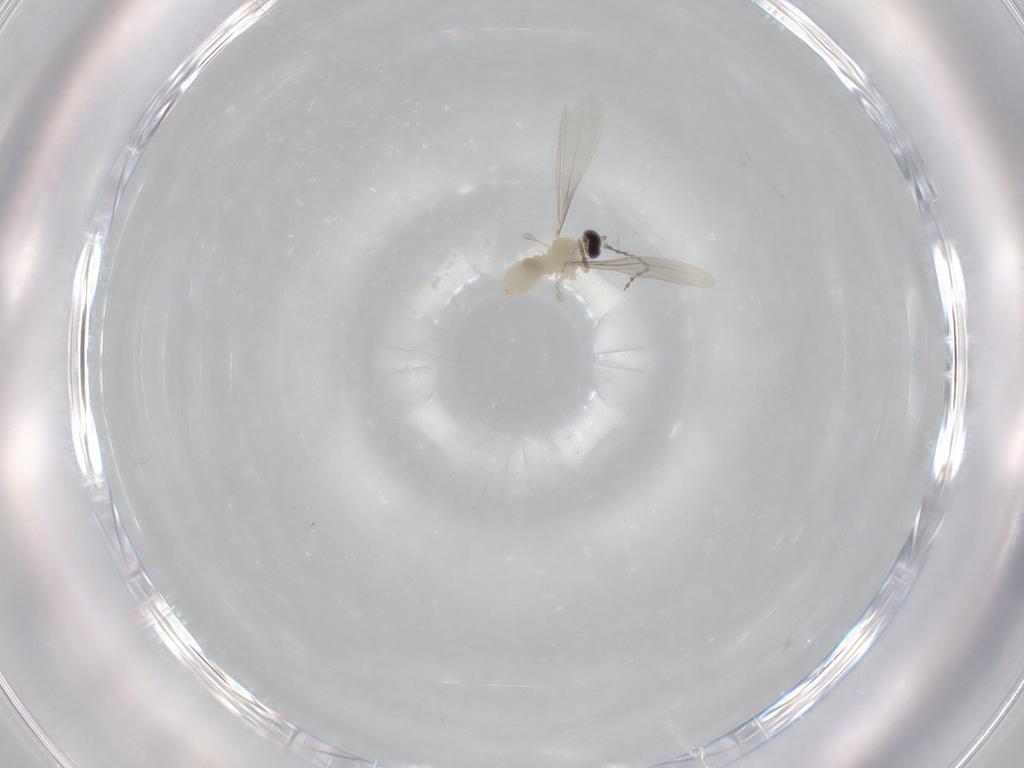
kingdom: Animalia
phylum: Arthropoda
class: Insecta
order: Diptera
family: Cecidomyiidae
